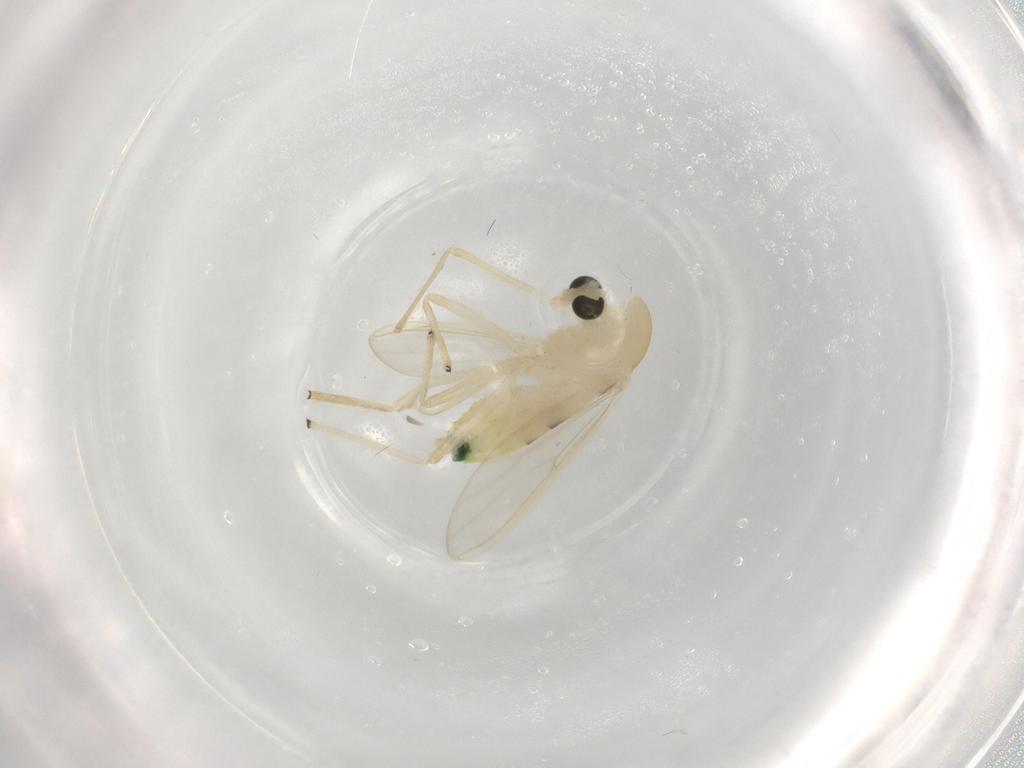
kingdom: Animalia
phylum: Arthropoda
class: Insecta
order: Diptera
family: Chironomidae
